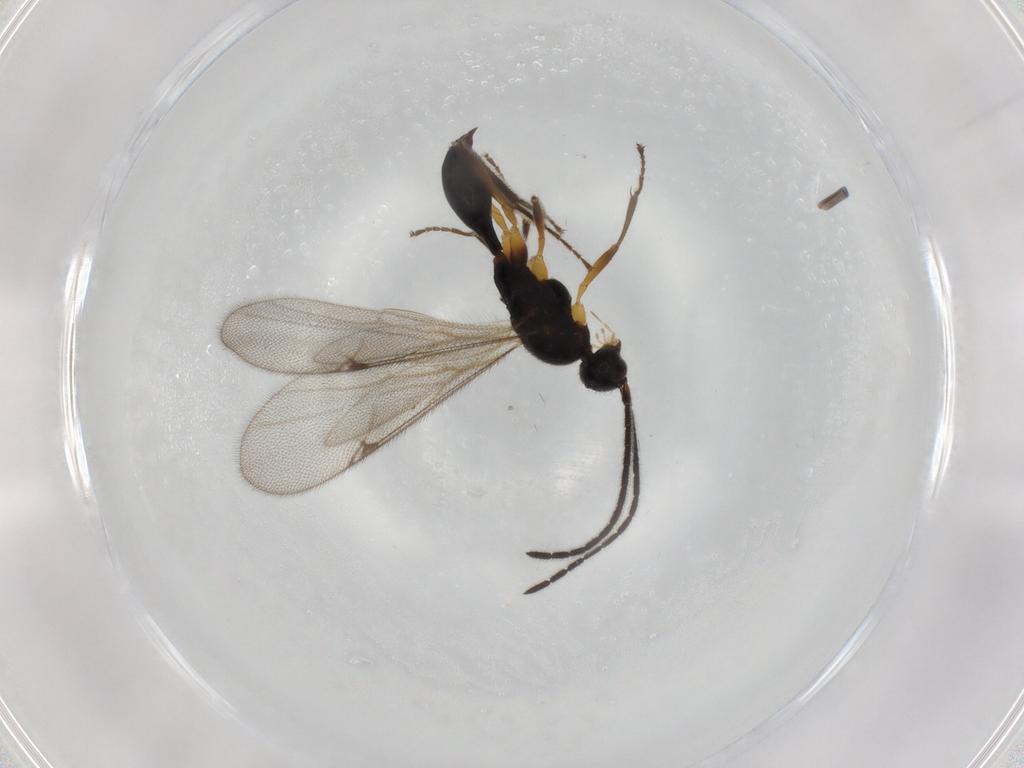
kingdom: Animalia
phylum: Arthropoda
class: Insecta
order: Hymenoptera
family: Proctotrupidae
